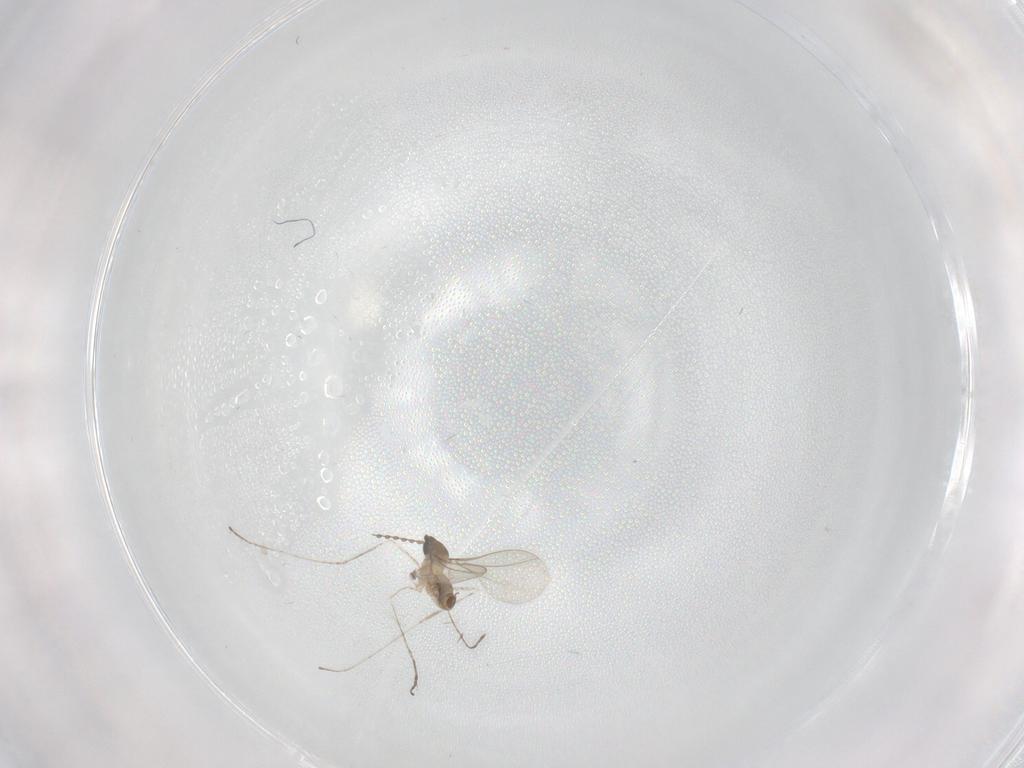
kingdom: Animalia
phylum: Arthropoda
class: Insecta
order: Diptera
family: Cecidomyiidae
